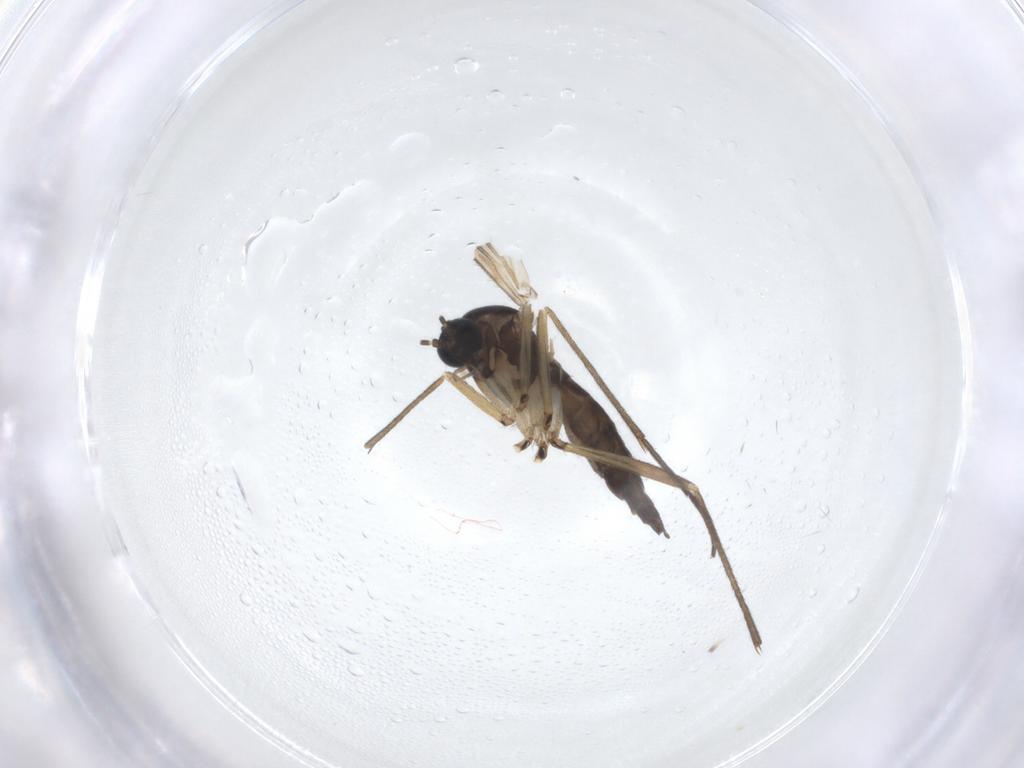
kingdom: Animalia
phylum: Arthropoda
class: Insecta
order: Diptera
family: Sciaridae
